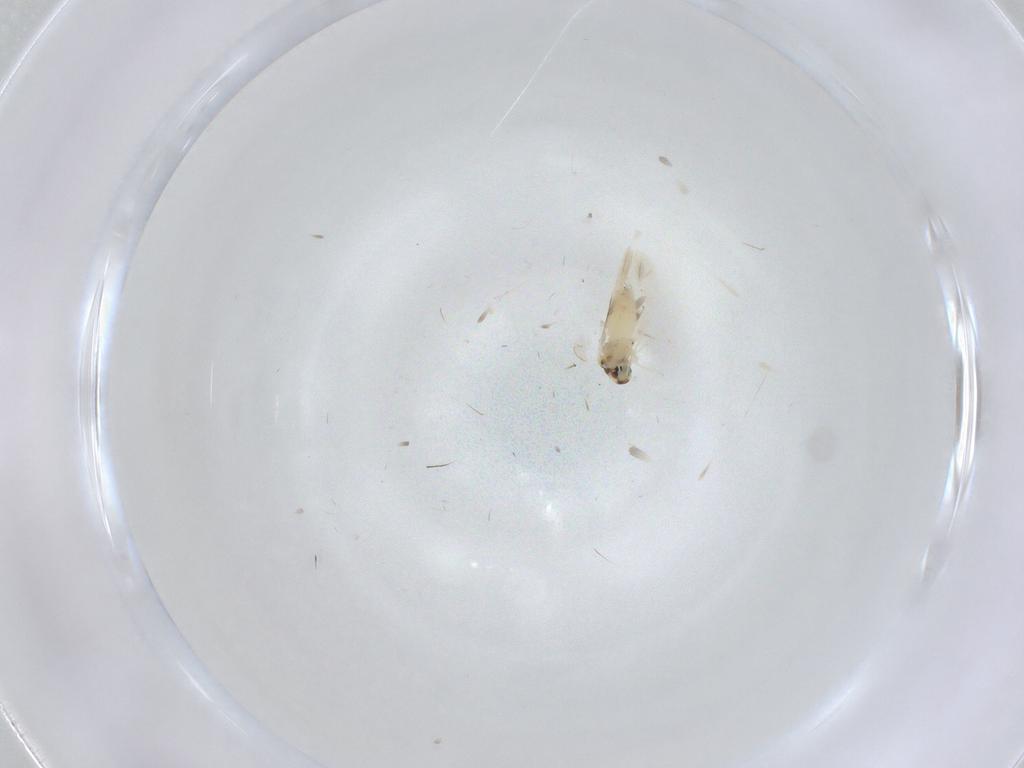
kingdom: Animalia
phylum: Arthropoda
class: Insecta
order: Hemiptera
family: Aleyrodidae
